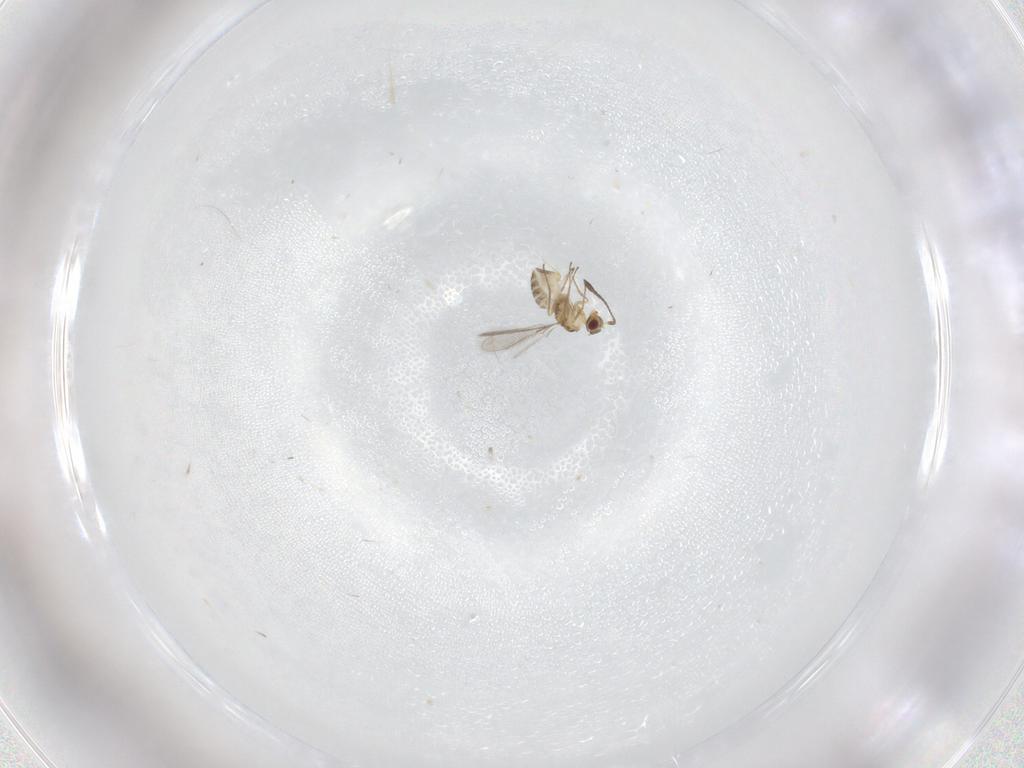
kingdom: Animalia
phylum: Arthropoda
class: Insecta
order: Hymenoptera
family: Mymaridae
